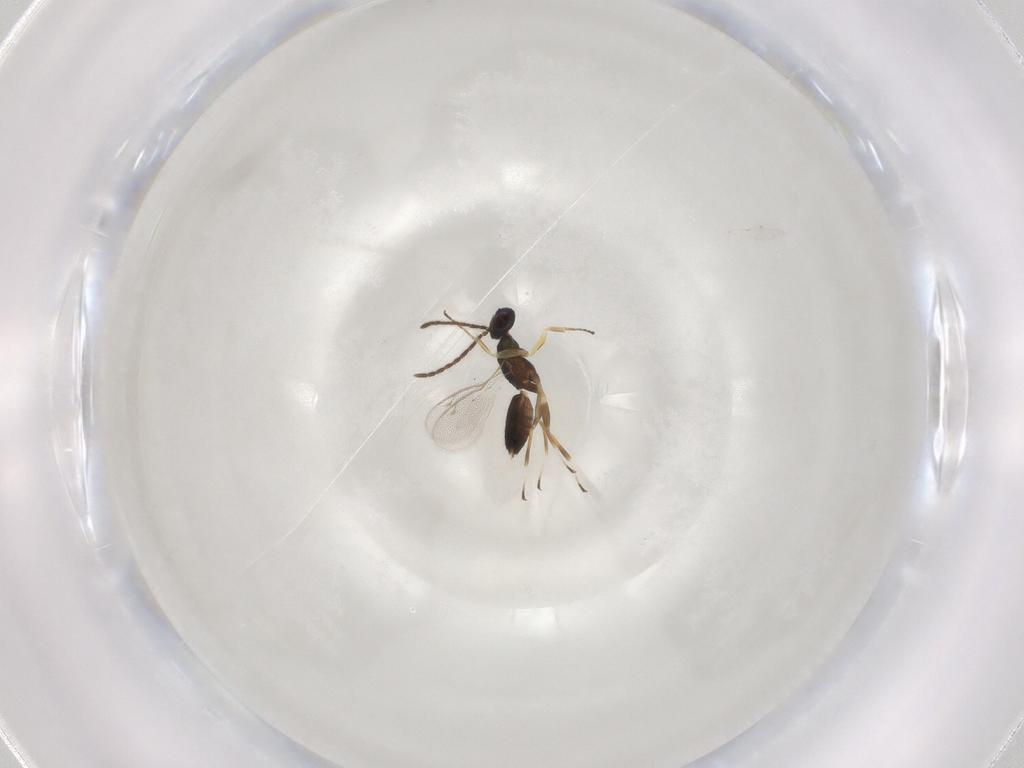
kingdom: Animalia
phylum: Arthropoda
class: Insecta
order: Hymenoptera
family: Eupelmidae
